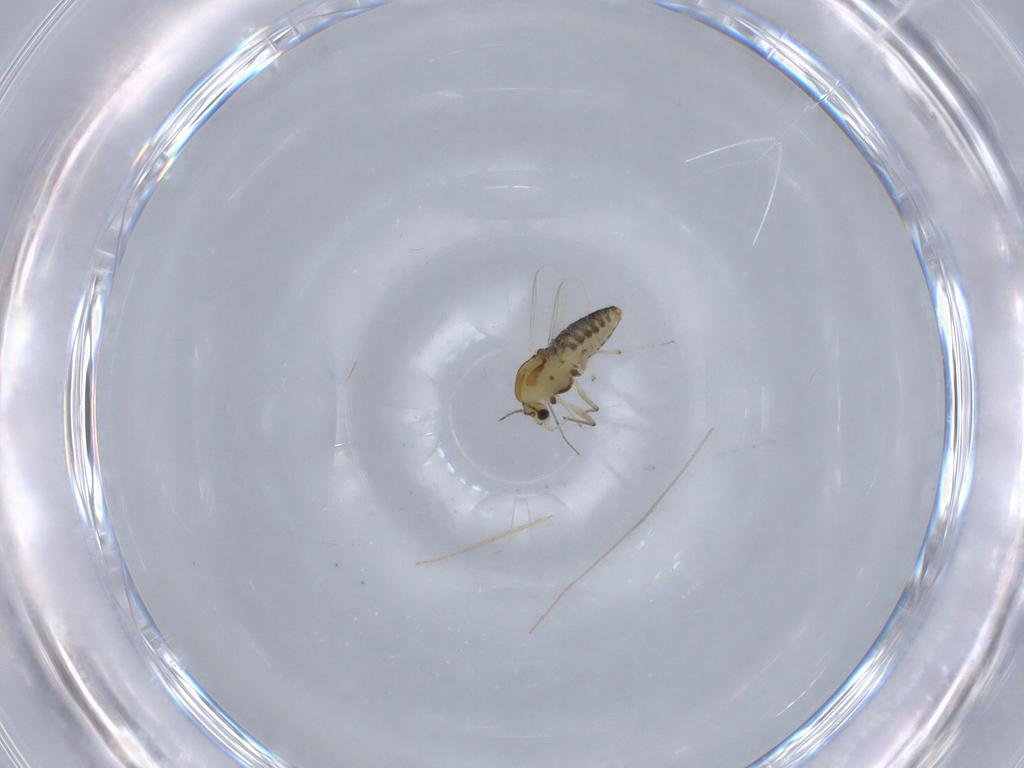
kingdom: Animalia
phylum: Arthropoda
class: Insecta
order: Diptera
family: Chironomidae
